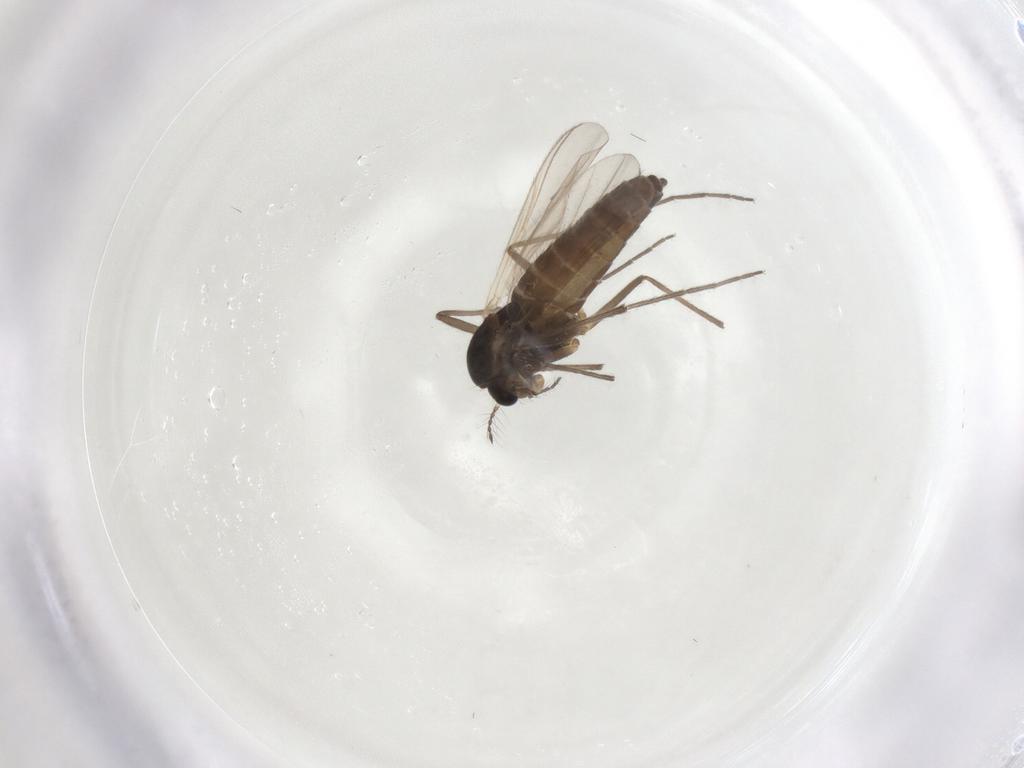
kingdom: Animalia
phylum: Arthropoda
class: Insecta
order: Diptera
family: Chironomidae
